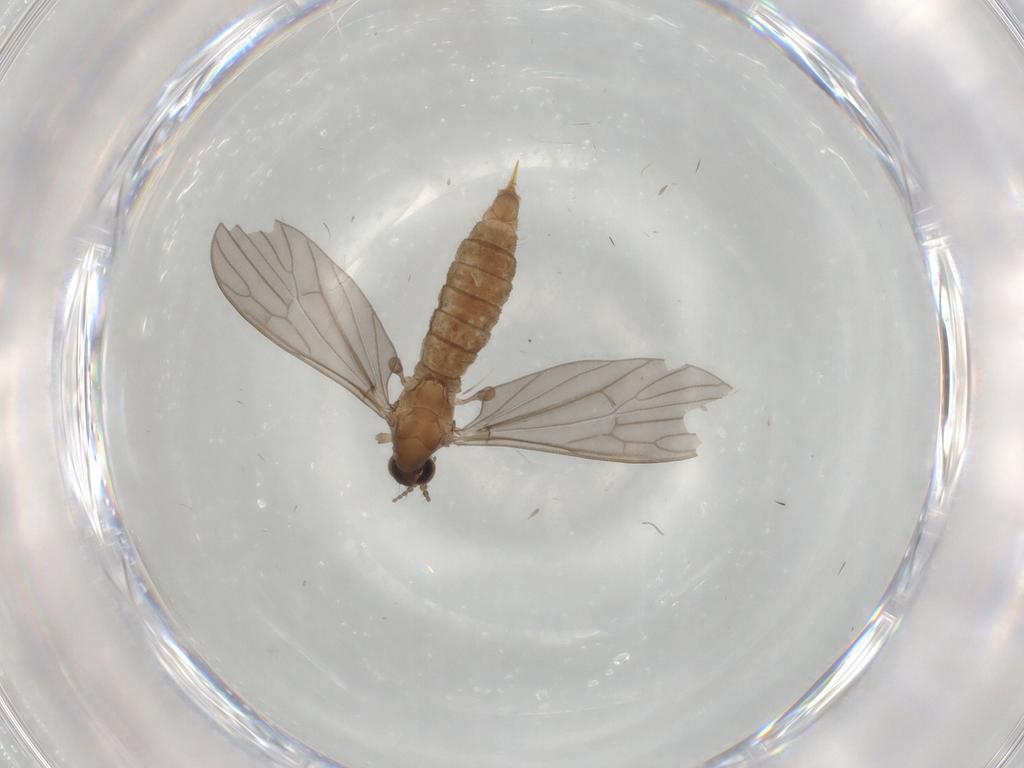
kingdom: Animalia
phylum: Arthropoda
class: Insecta
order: Diptera
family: Limoniidae
